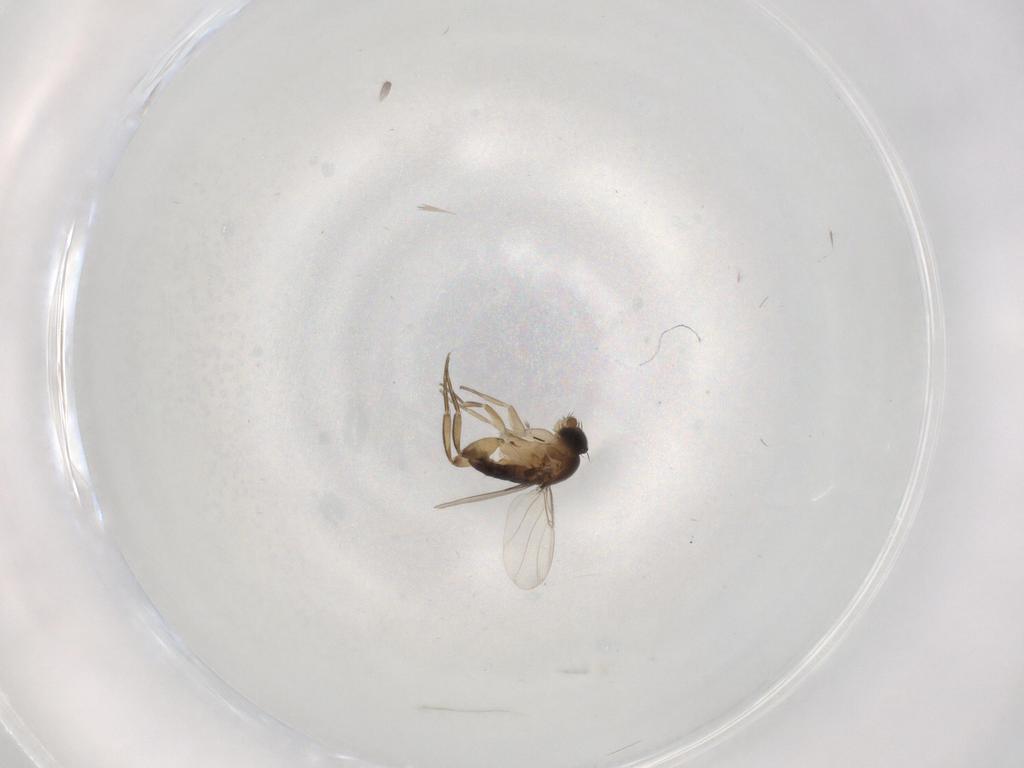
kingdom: Animalia
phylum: Arthropoda
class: Insecta
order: Diptera
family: Phoridae
